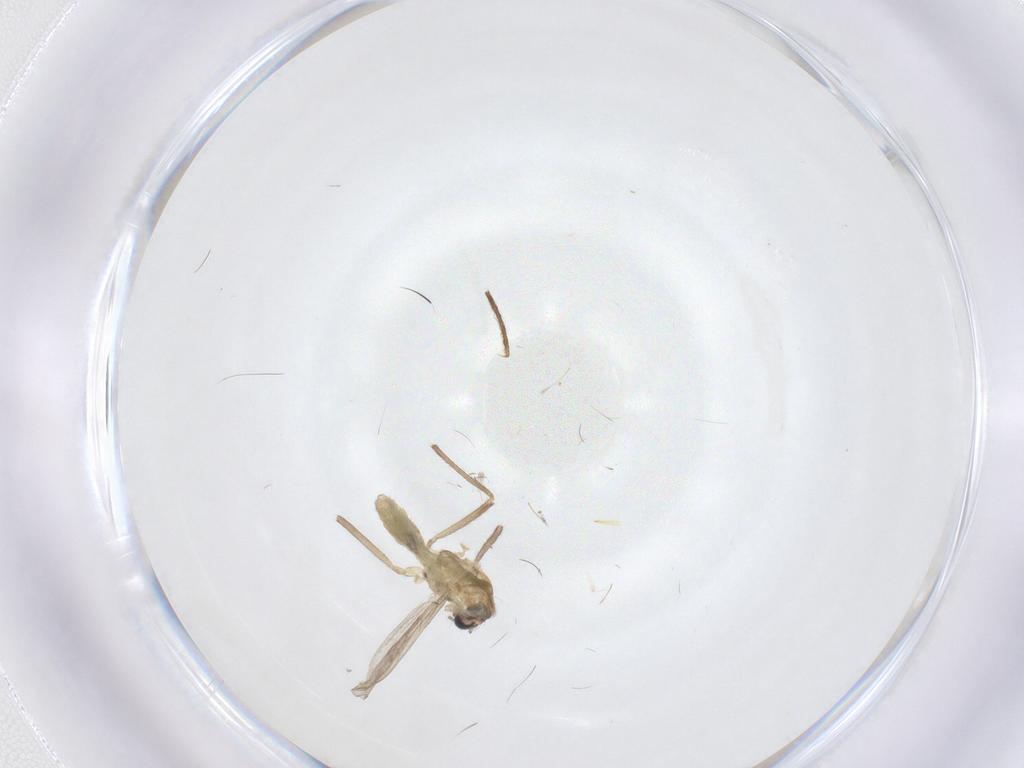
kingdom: Animalia
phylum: Arthropoda
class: Insecta
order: Diptera
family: Chironomidae
